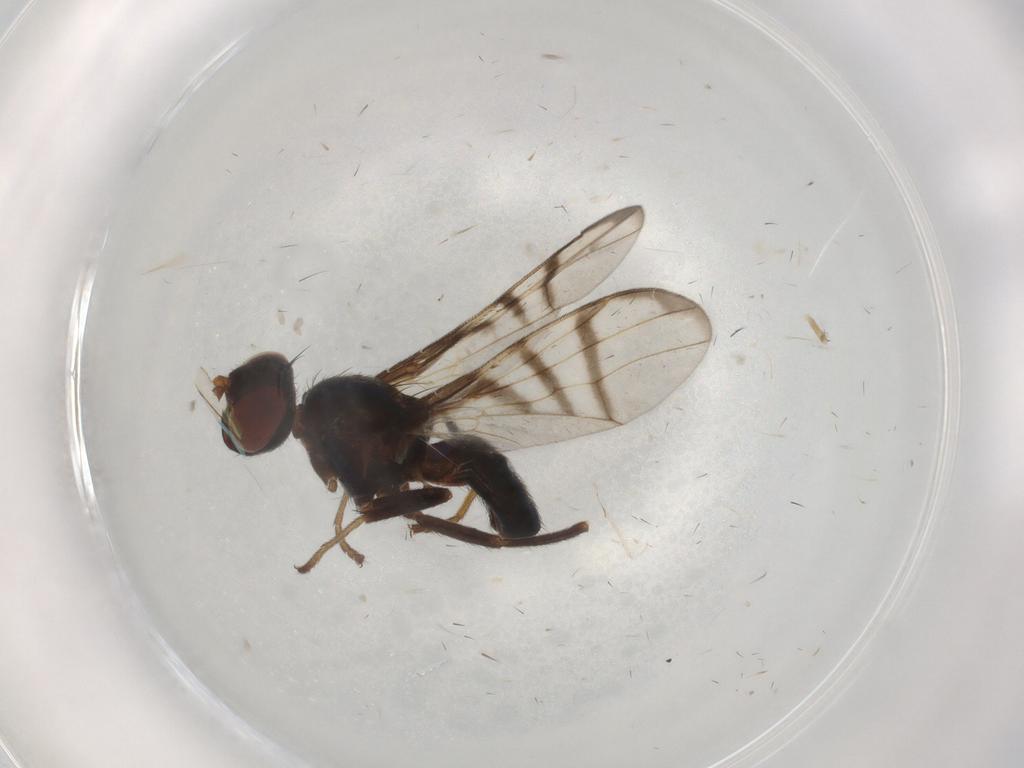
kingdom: Animalia
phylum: Arthropoda
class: Insecta
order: Diptera
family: Platystomatidae
